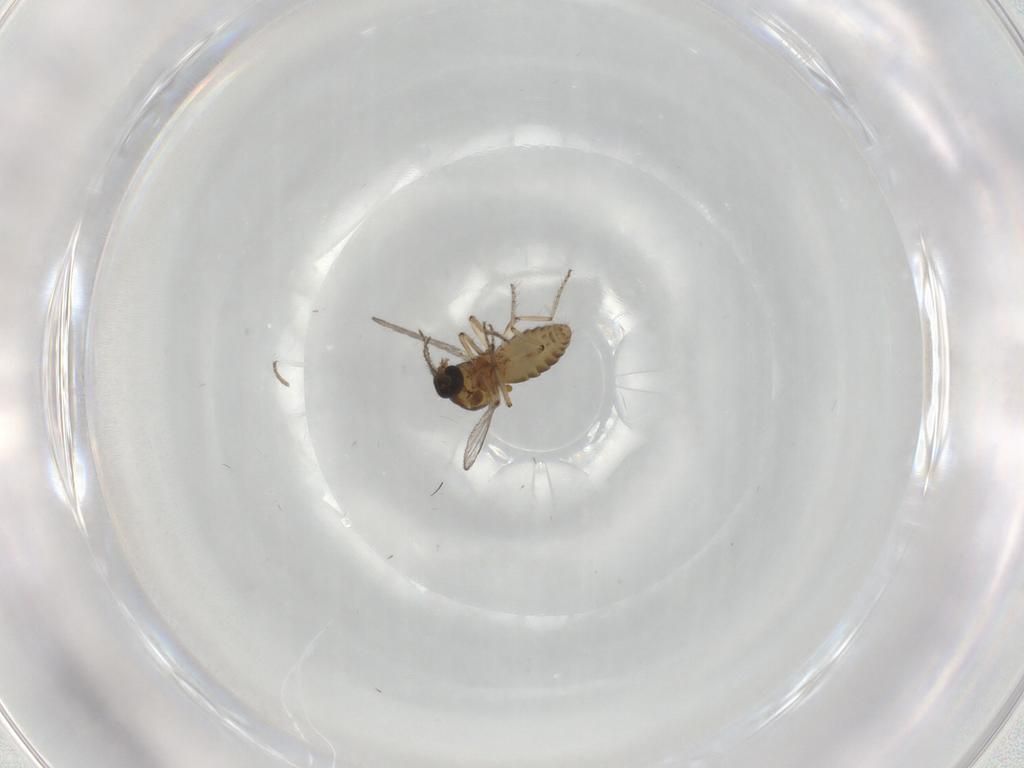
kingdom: Animalia
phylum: Arthropoda
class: Insecta
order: Diptera
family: Ceratopogonidae
